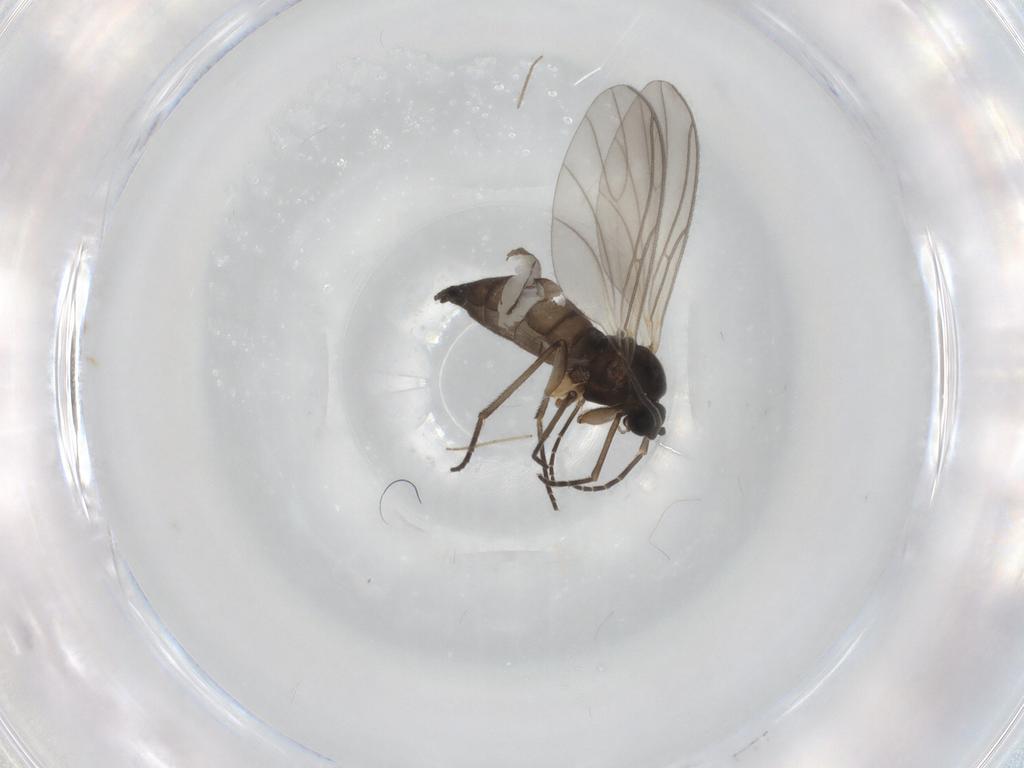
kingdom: Animalia
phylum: Arthropoda
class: Insecta
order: Diptera
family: Sciaridae
